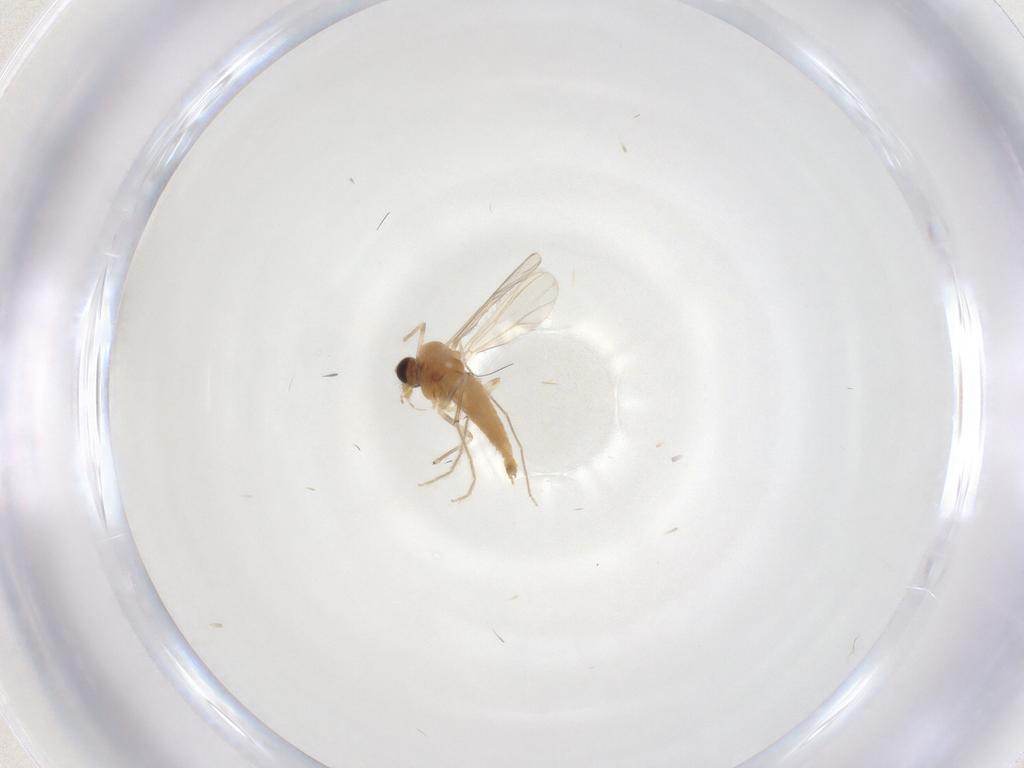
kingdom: Animalia
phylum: Arthropoda
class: Insecta
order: Diptera
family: Chironomidae
